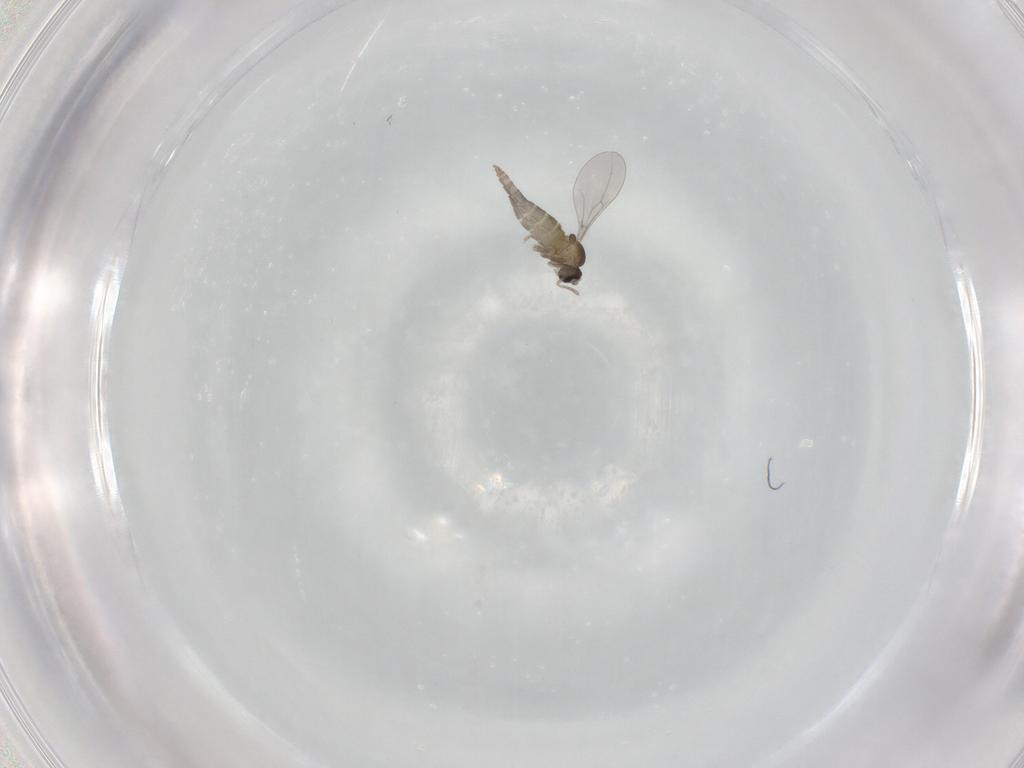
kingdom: Animalia
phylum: Arthropoda
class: Insecta
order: Diptera
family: Cecidomyiidae
